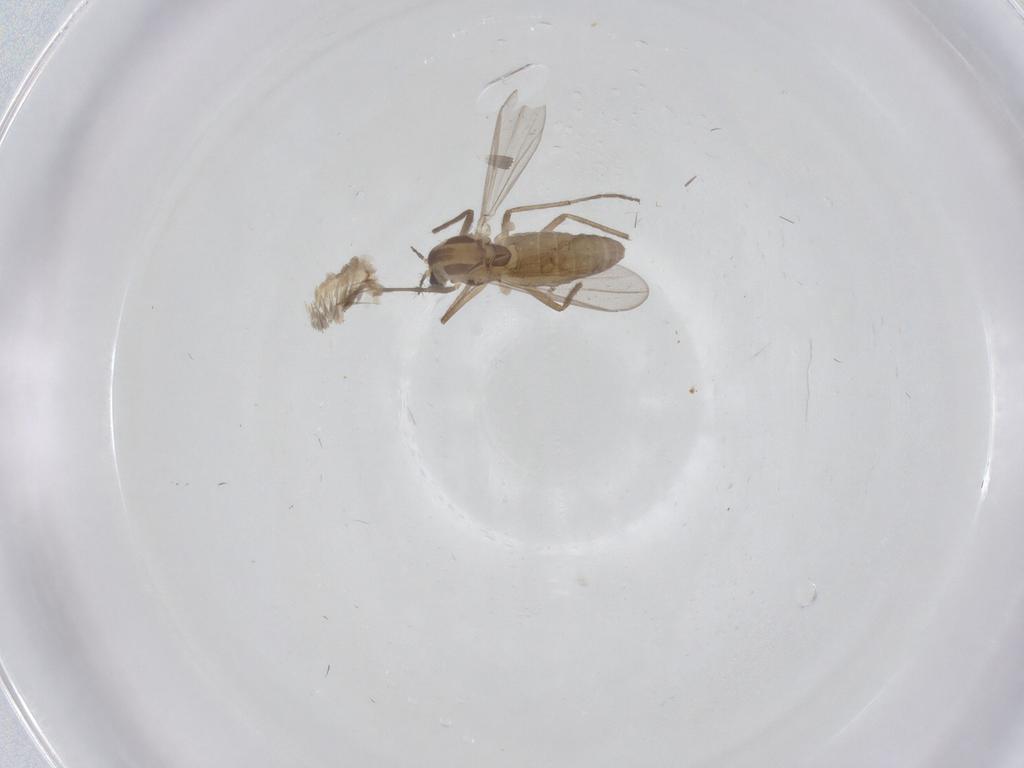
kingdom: Animalia
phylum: Arthropoda
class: Insecta
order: Diptera
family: Chironomidae
